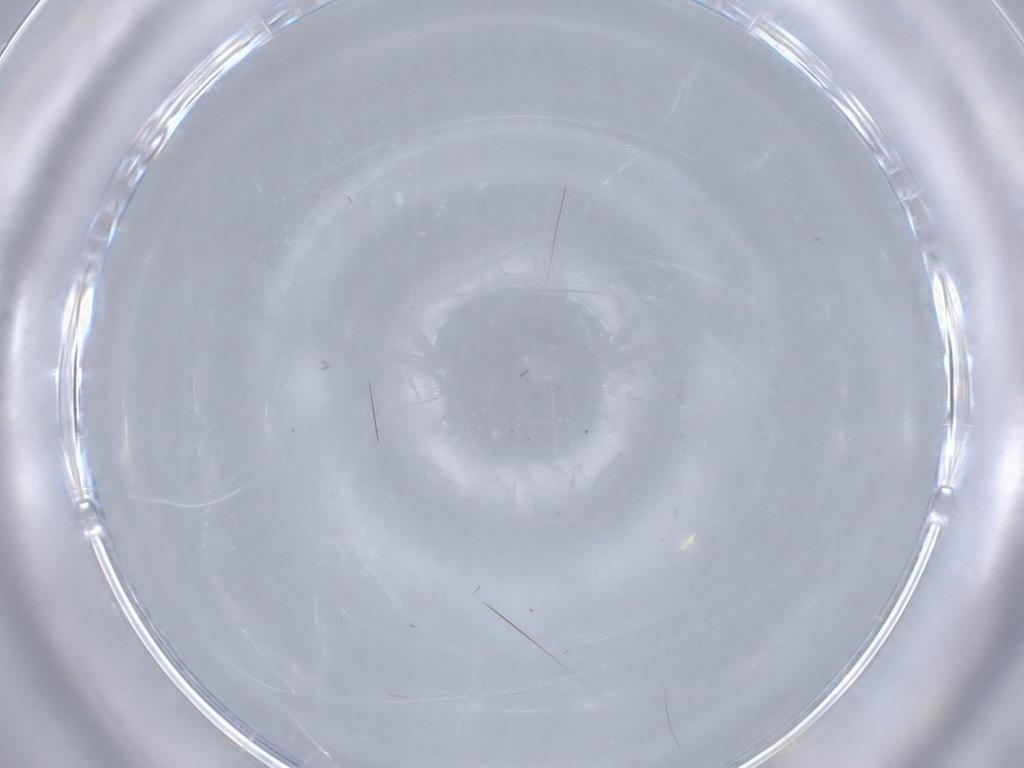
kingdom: Animalia
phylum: Arthropoda
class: Insecta
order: Diptera
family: Cecidomyiidae
